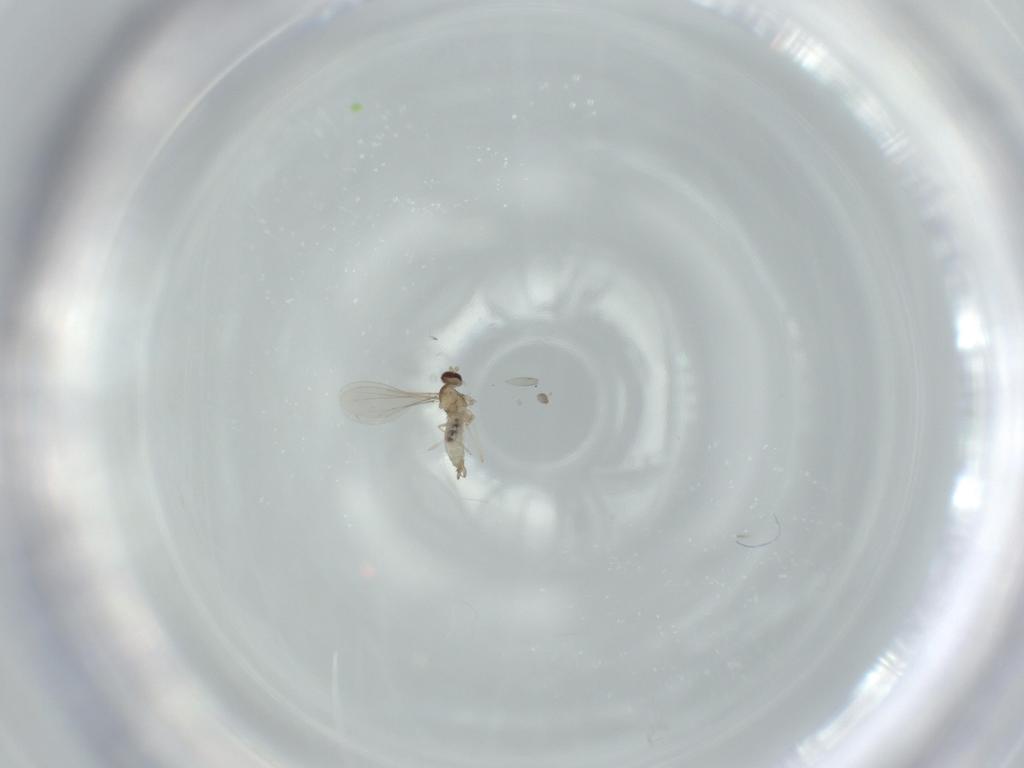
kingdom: Animalia
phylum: Arthropoda
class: Insecta
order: Diptera
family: Cecidomyiidae
